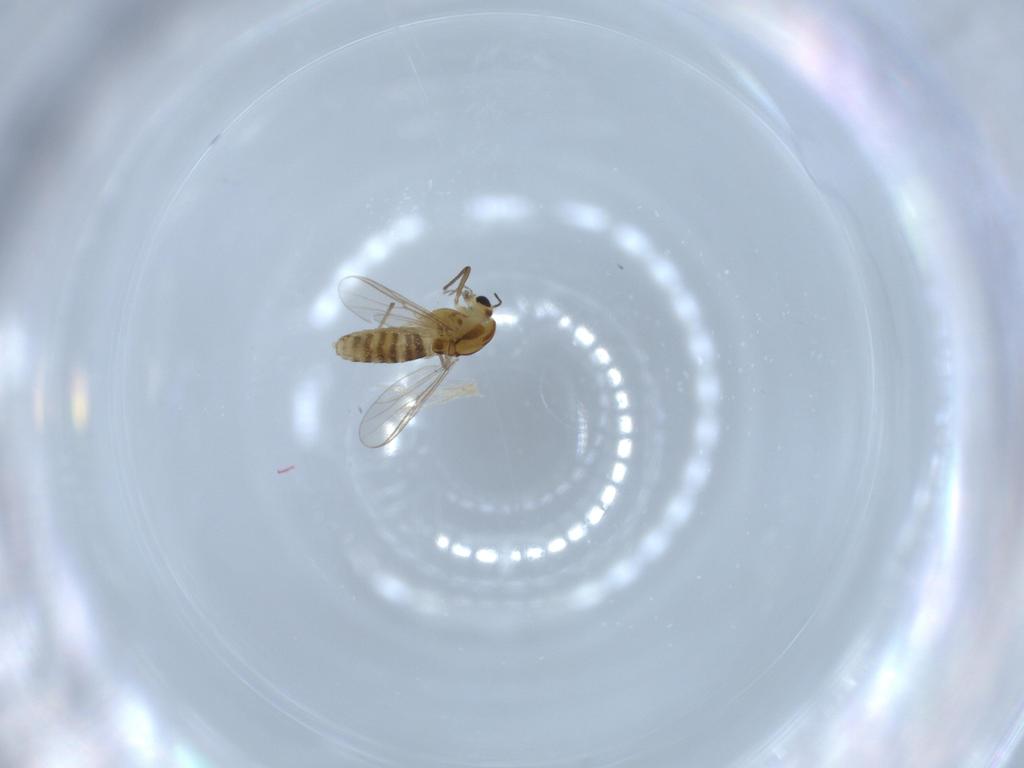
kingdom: Animalia
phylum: Arthropoda
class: Insecta
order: Diptera
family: Chironomidae
